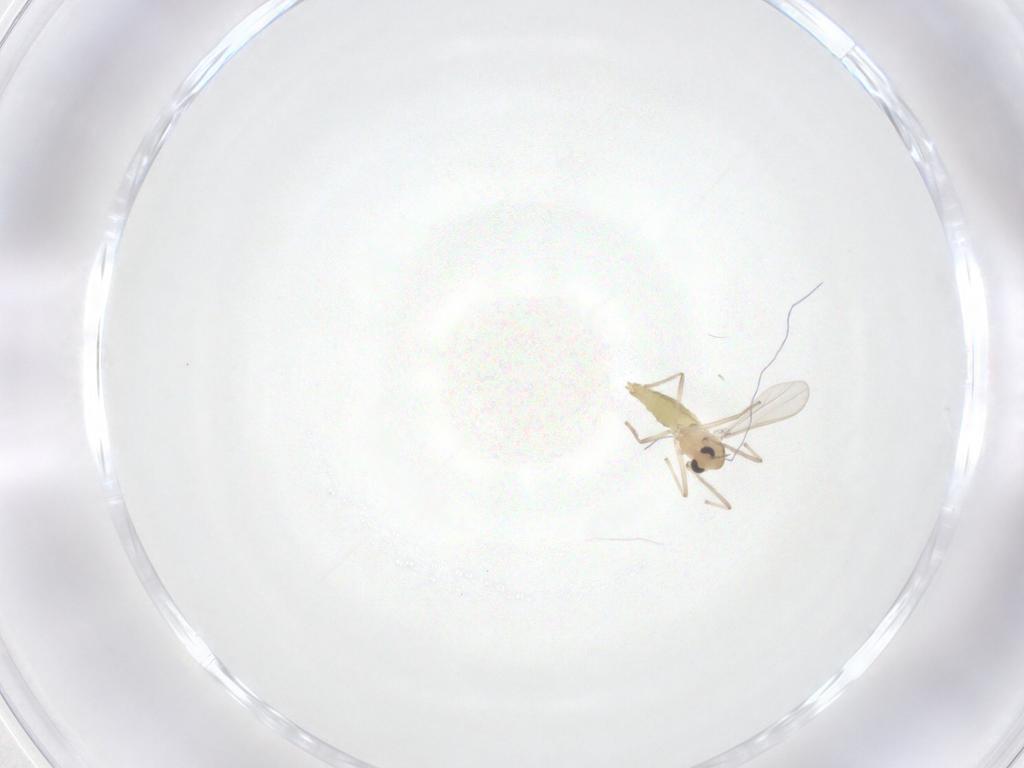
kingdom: Animalia
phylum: Arthropoda
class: Insecta
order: Diptera
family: Chironomidae
